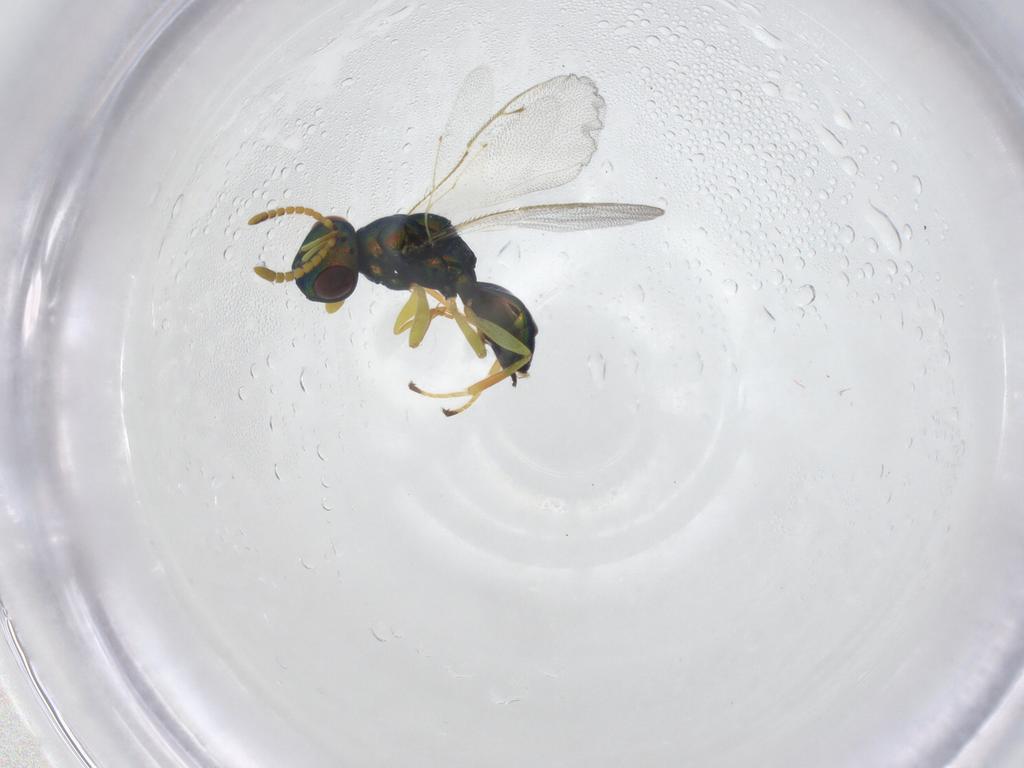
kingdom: Animalia
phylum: Arthropoda
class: Insecta
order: Hymenoptera
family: Pteromalidae
